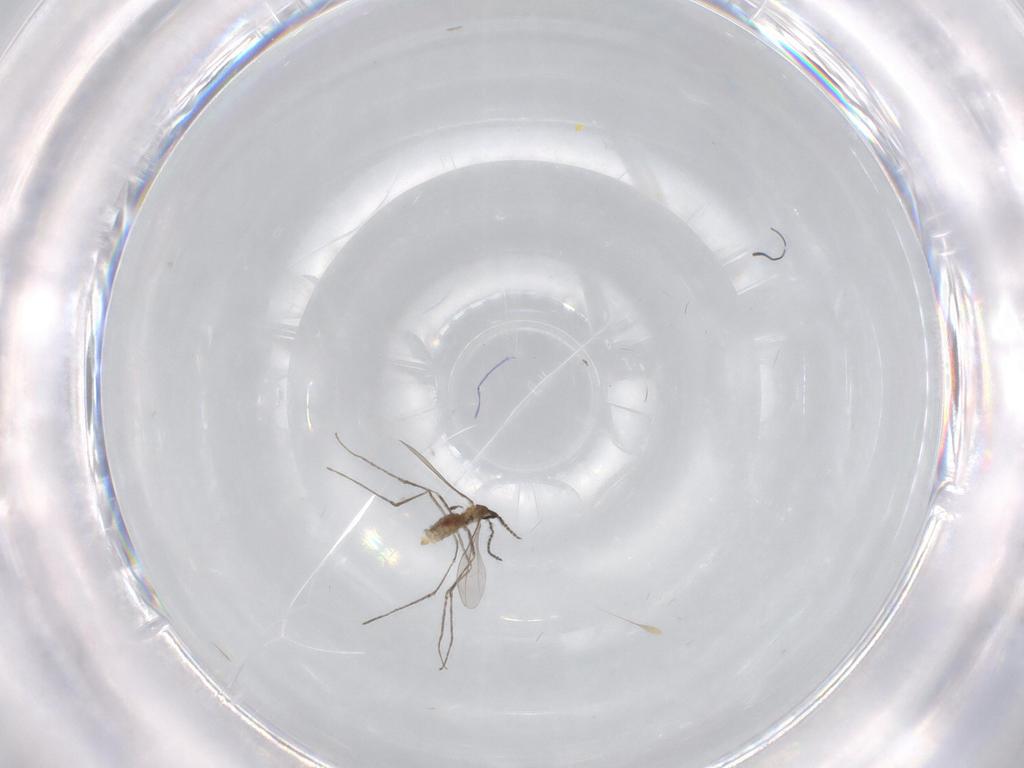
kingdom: Animalia
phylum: Arthropoda
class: Insecta
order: Diptera
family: Cecidomyiidae
